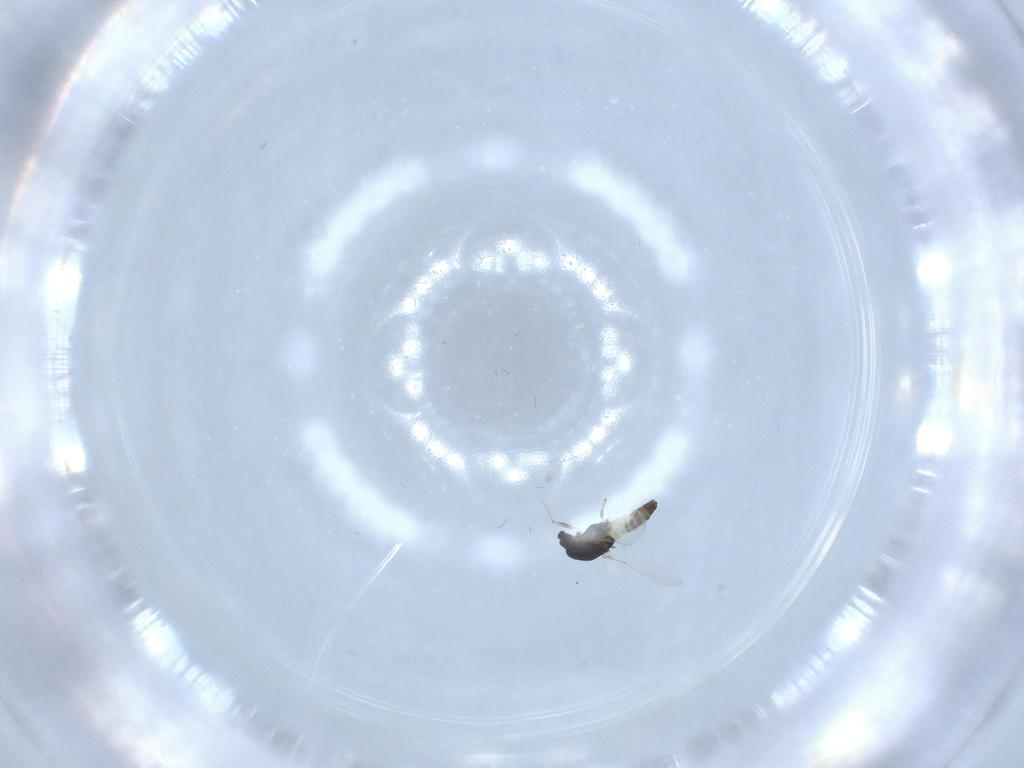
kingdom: Animalia
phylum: Arthropoda
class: Insecta
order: Diptera
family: Chironomidae
